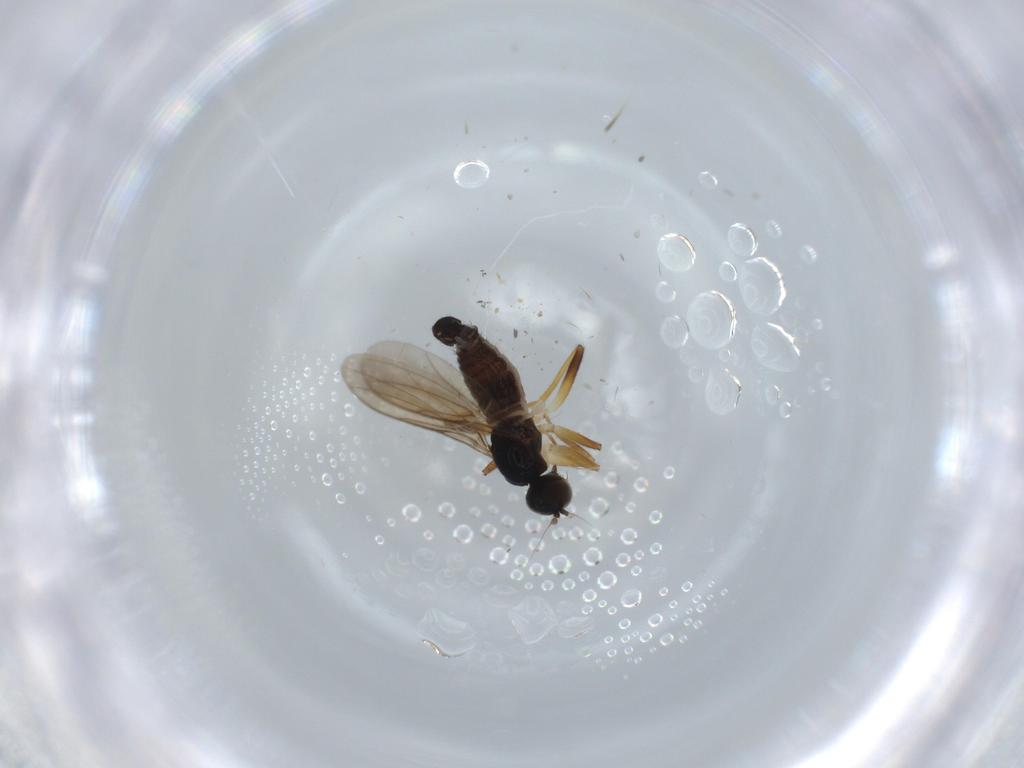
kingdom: Animalia
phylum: Arthropoda
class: Insecta
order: Diptera
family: Hybotidae
